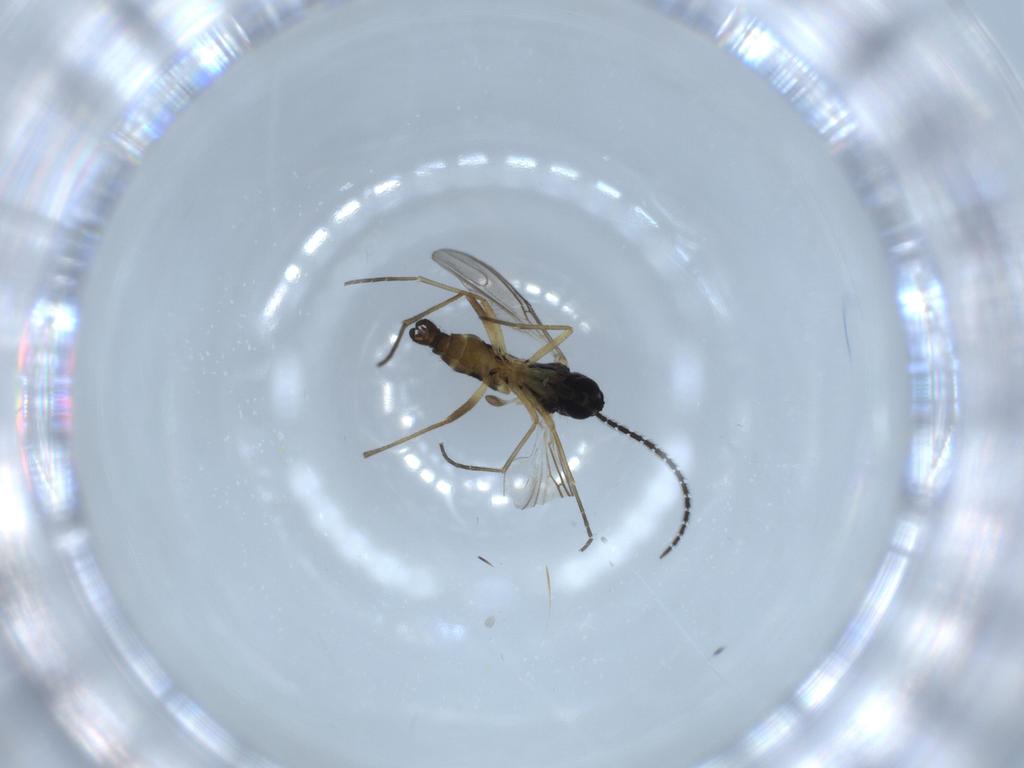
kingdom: Animalia
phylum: Arthropoda
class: Insecta
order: Diptera
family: Sciaridae
